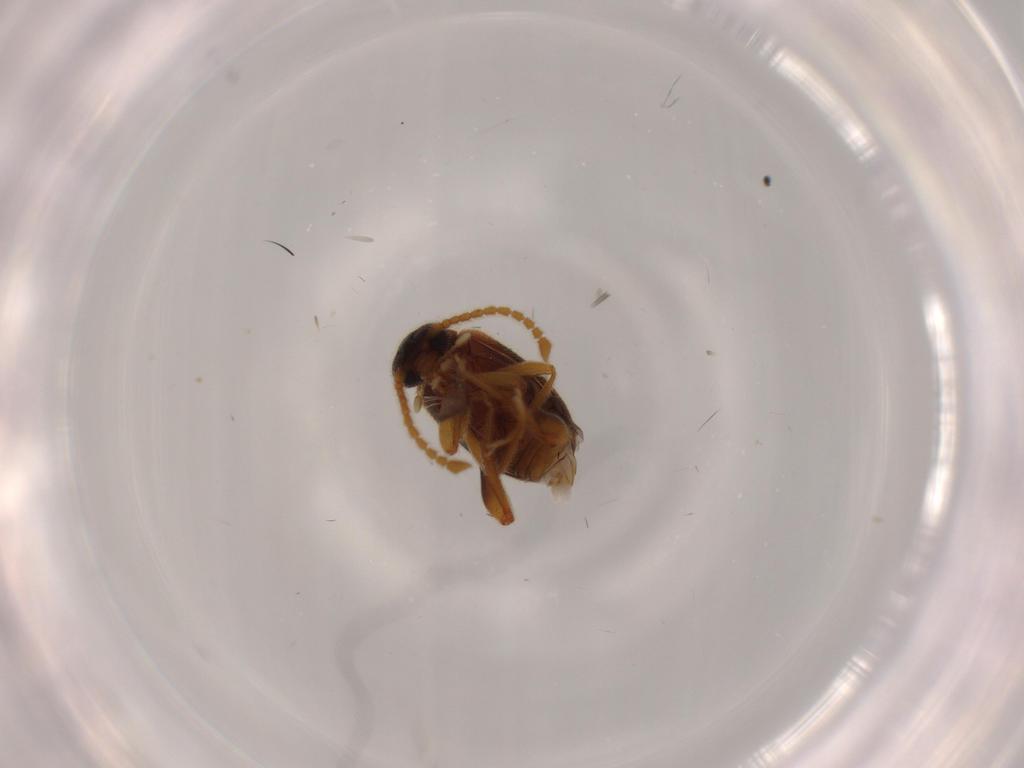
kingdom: Animalia
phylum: Arthropoda
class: Insecta
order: Coleoptera
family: Aderidae
